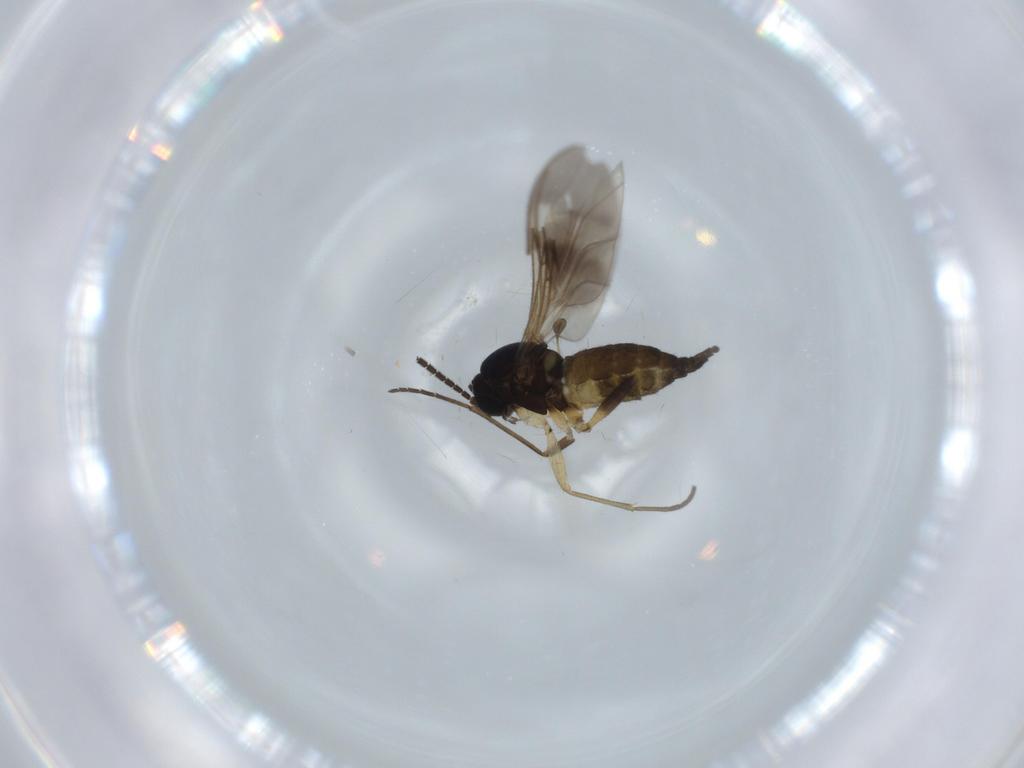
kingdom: Animalia
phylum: Arthropoda
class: Insecta
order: Diptera
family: Sciaridae
